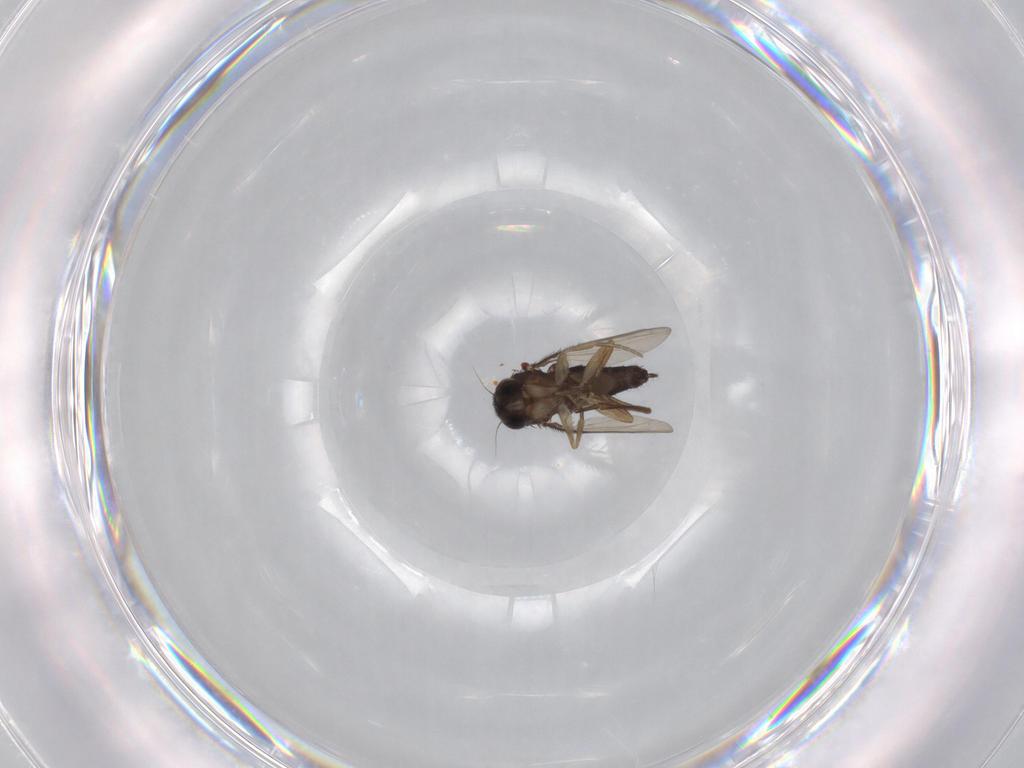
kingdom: Animalia
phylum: Arthropoda
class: Insecta
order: Diptera
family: Phoridae
